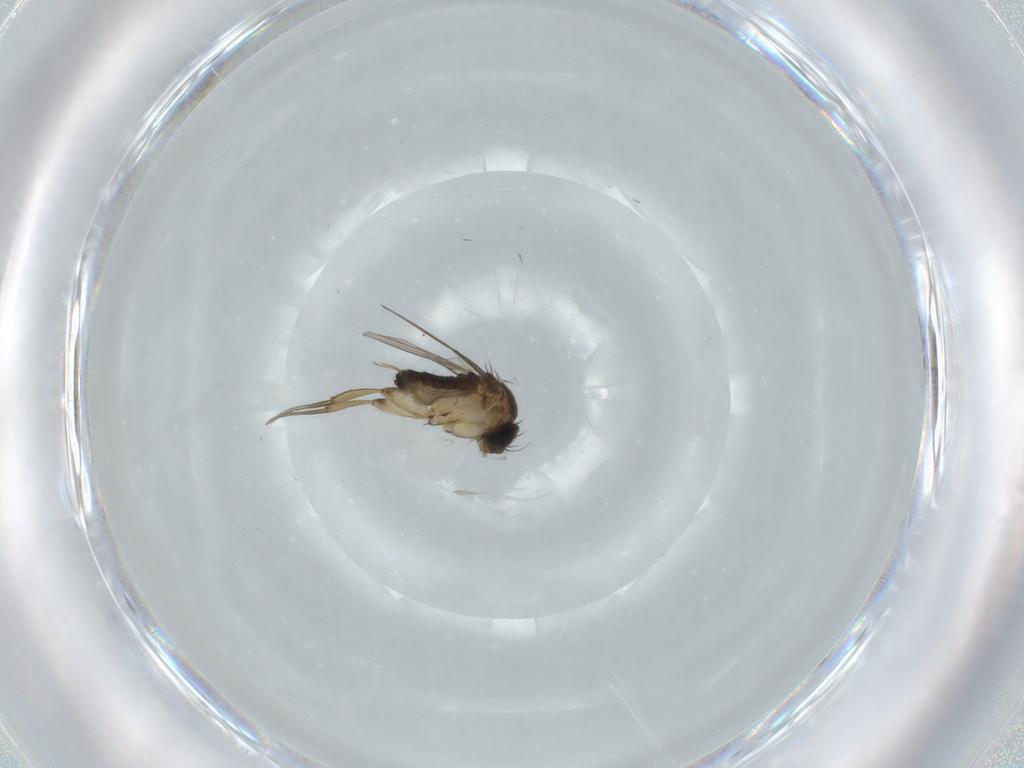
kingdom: Animalia
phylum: Arthropoda
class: Insecta
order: Diptera
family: Phoridae
